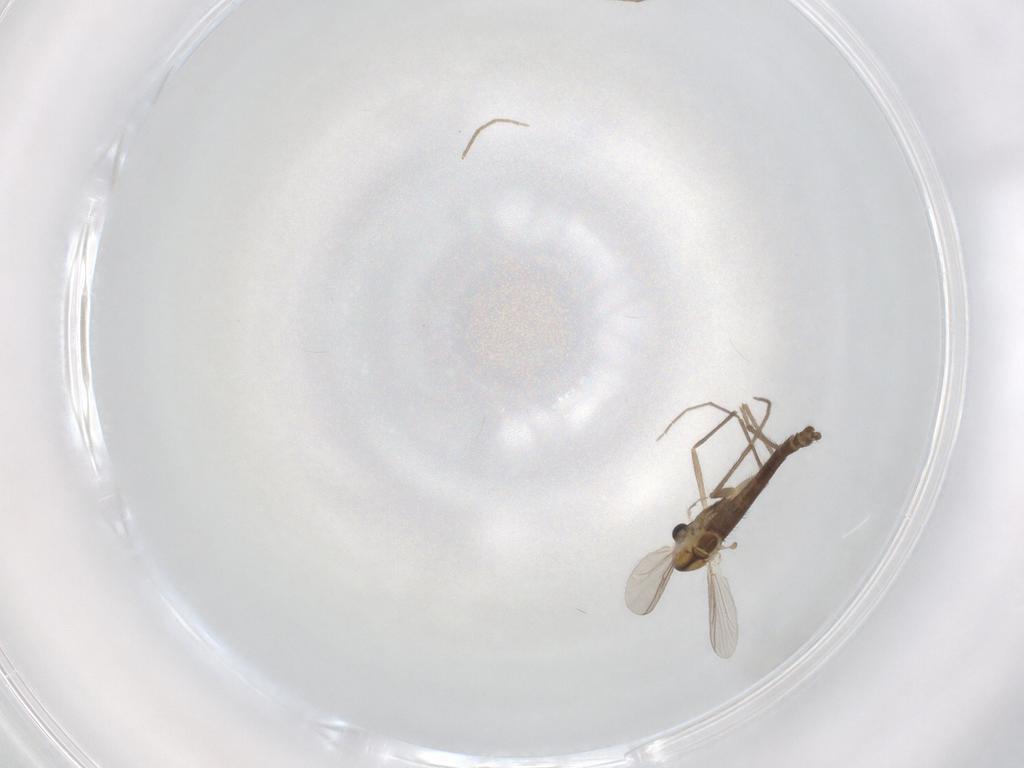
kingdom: Animalia
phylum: Arthropoda
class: Insecta
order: Diptera
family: Chironomidae
